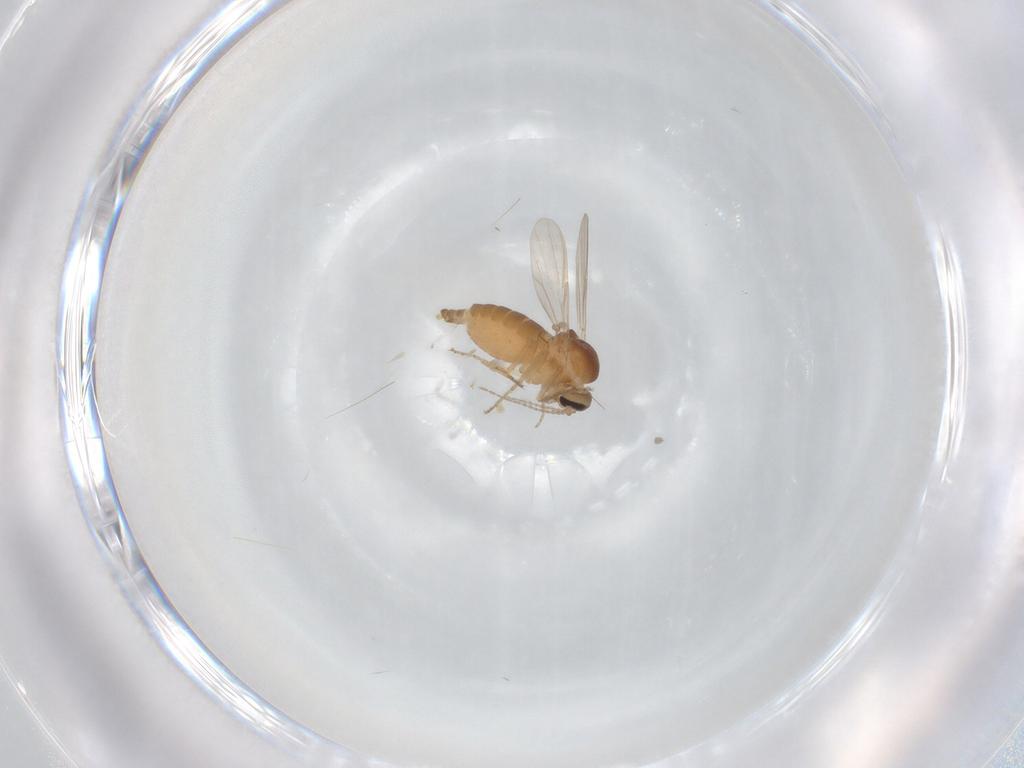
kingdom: Animalia
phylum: Arthropoda
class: Insecta
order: Diptera
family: Ceratopogonidae
